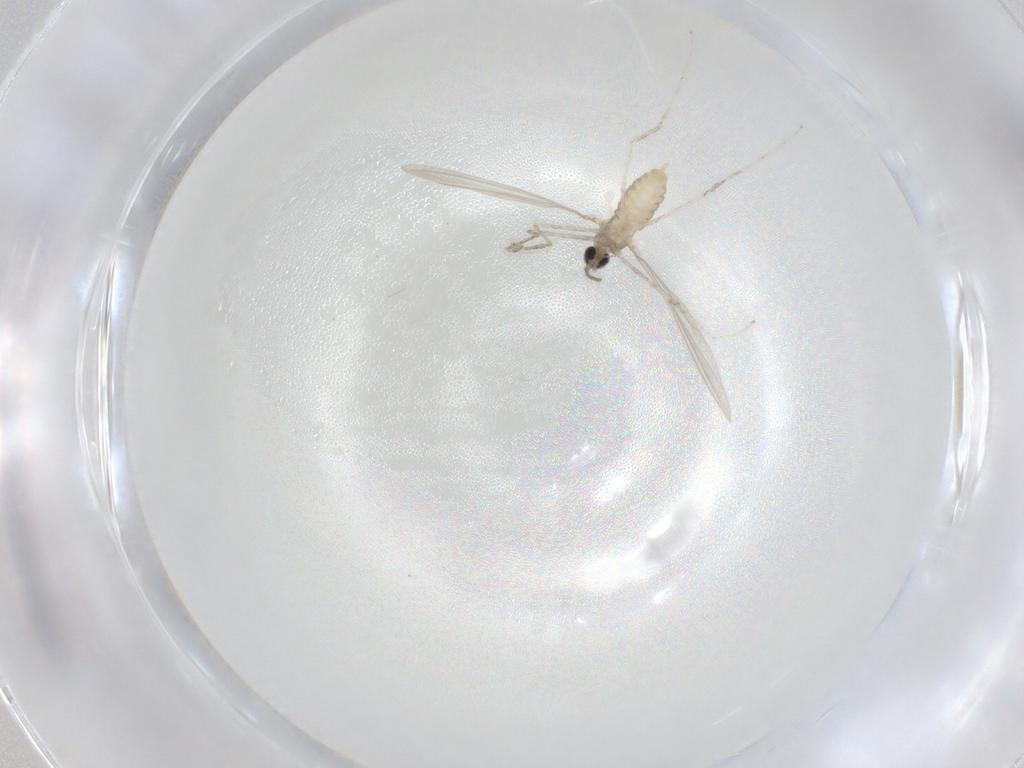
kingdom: Animalia
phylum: Arthropoda
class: Insecta
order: Diptera
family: Cecidomyiidae
